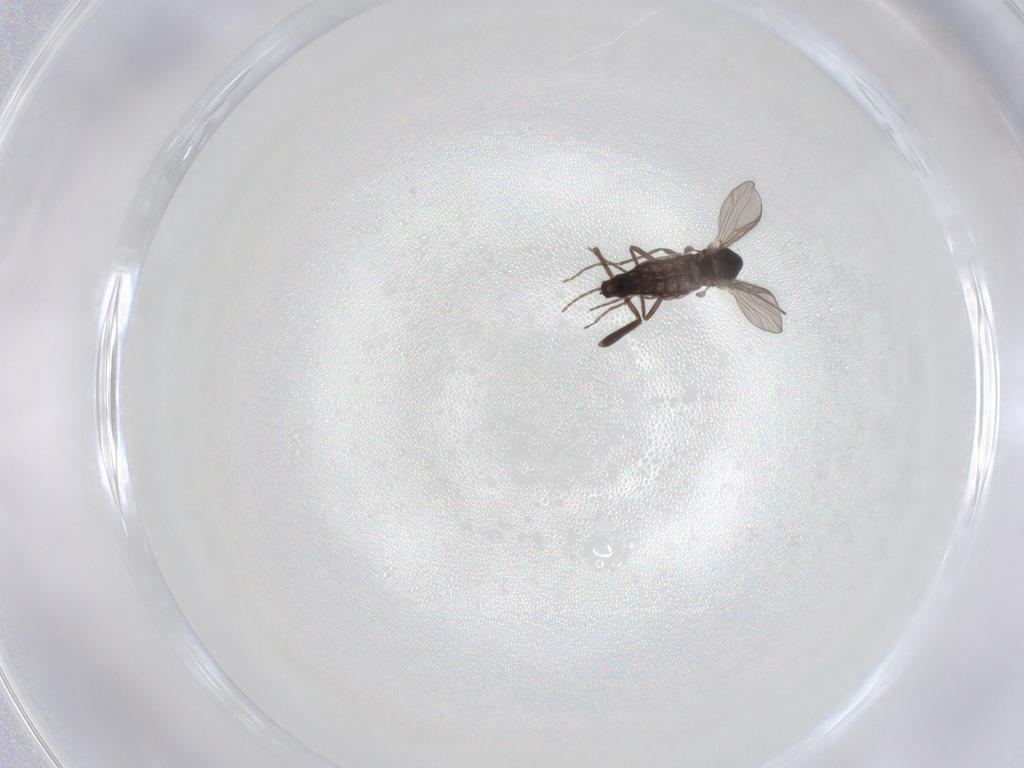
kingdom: Animalia
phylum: Arthropoda
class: Insecta
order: Diptera
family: Chironomidae
